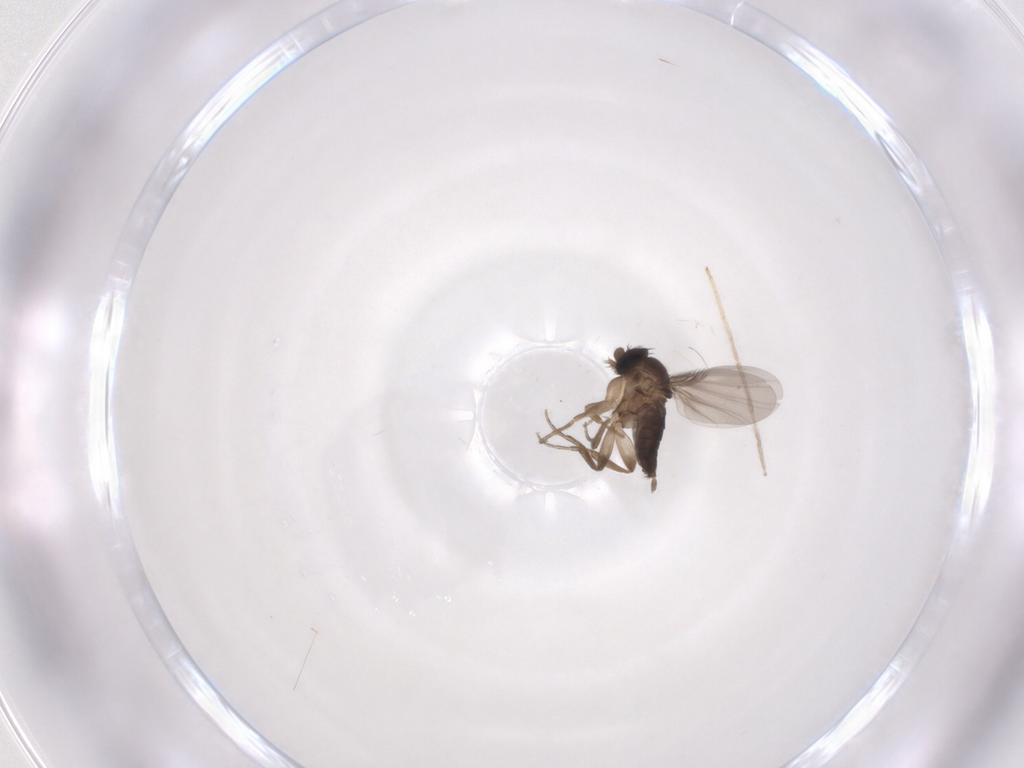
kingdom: Animalia
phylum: Arthropoda
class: Insecta
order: Diptera
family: Phoridae
